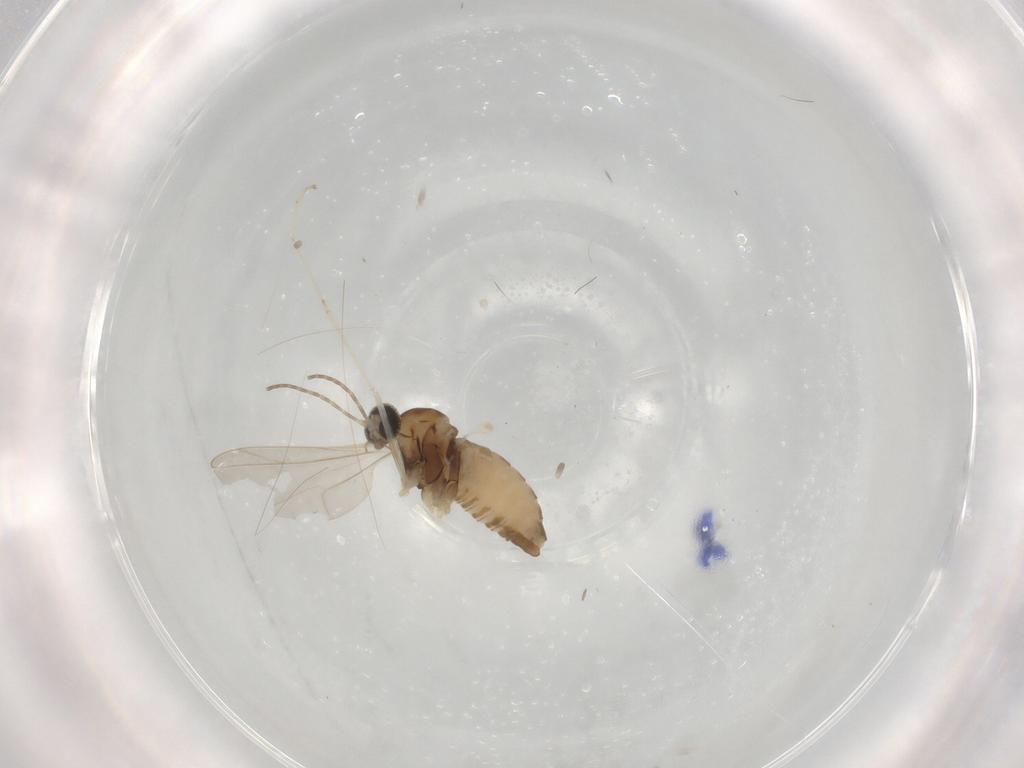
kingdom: Animalia
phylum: Arthropoda
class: Insecta
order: Diptera
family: Cecidomyiidae
